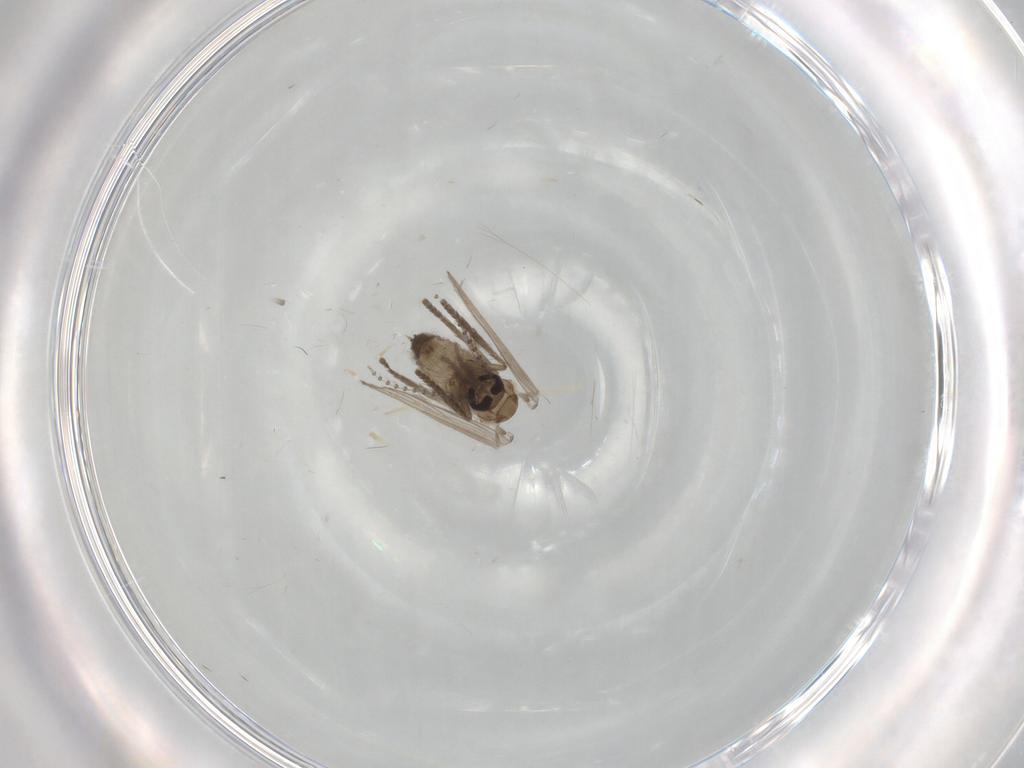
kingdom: Animalia
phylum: Arthropoda
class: Insecta
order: Diptera
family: Psychodidae
